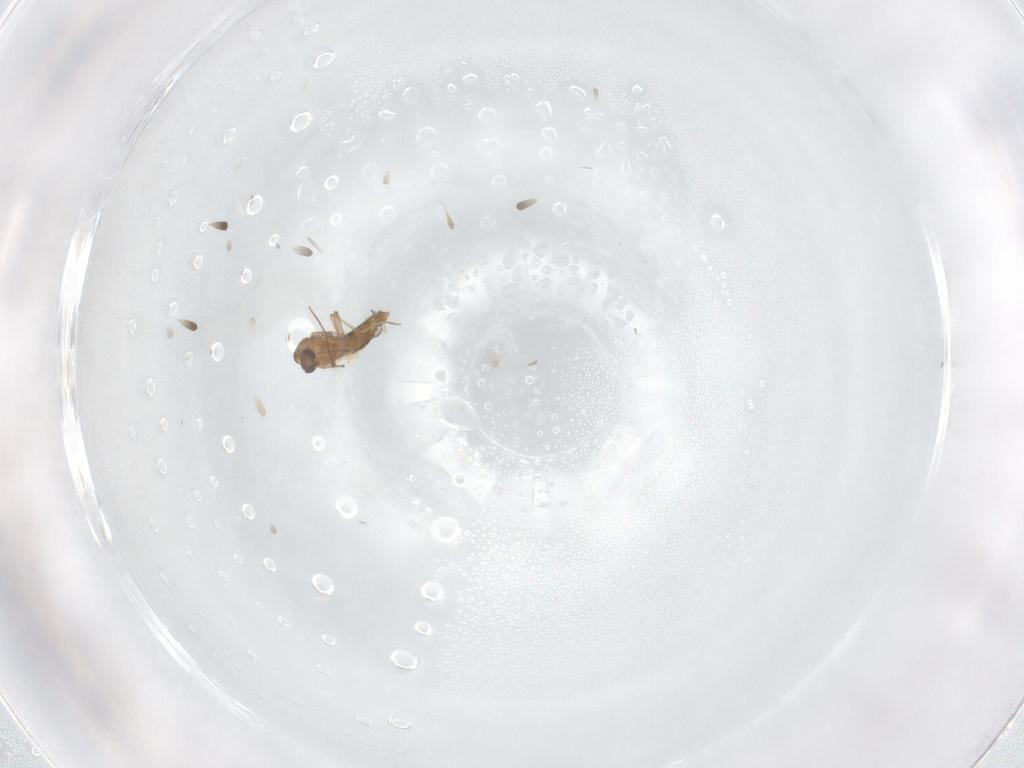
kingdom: Animalia
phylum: Arthropoda
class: Insecta
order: Diptera
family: Chironomidae
